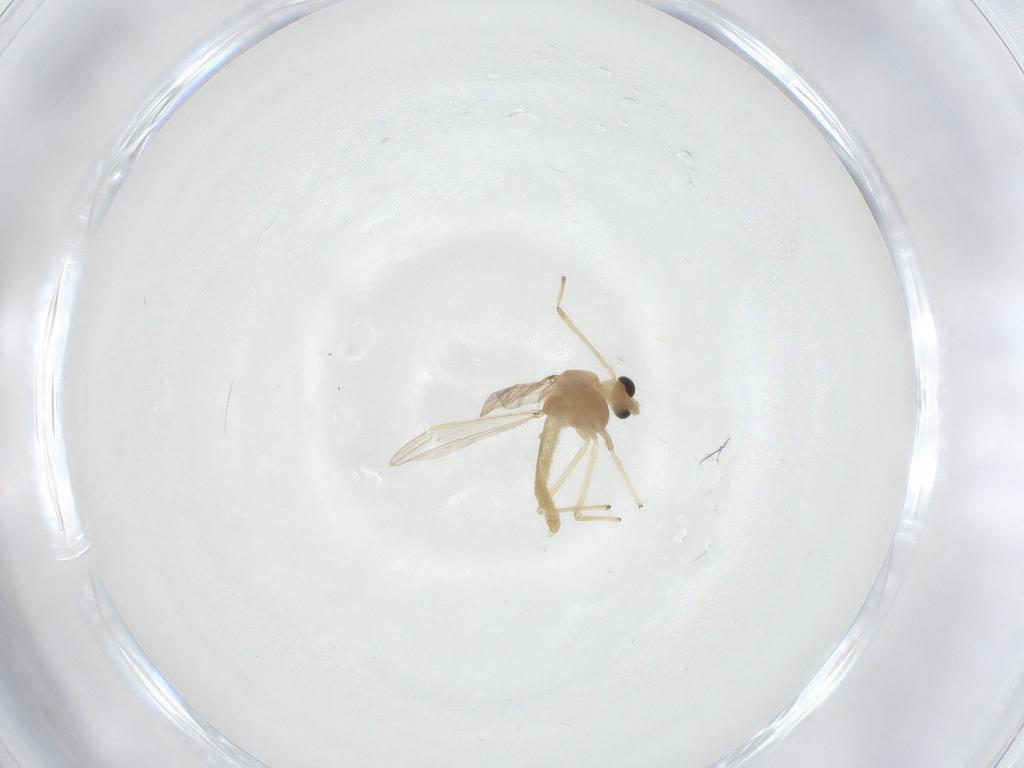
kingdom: Animalia
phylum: Arthropoda
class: Insecta
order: Diptera
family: Chironomidae
